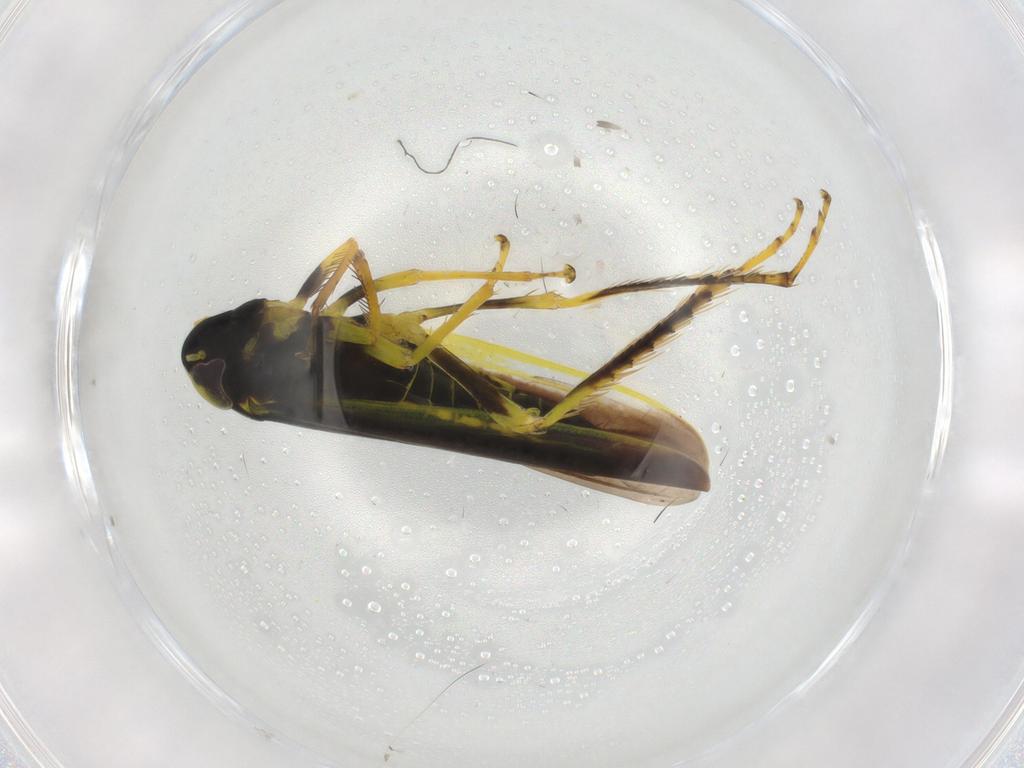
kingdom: Animalia
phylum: Arthropoda
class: Insecta
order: Hemiptera
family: Cicadellidae
